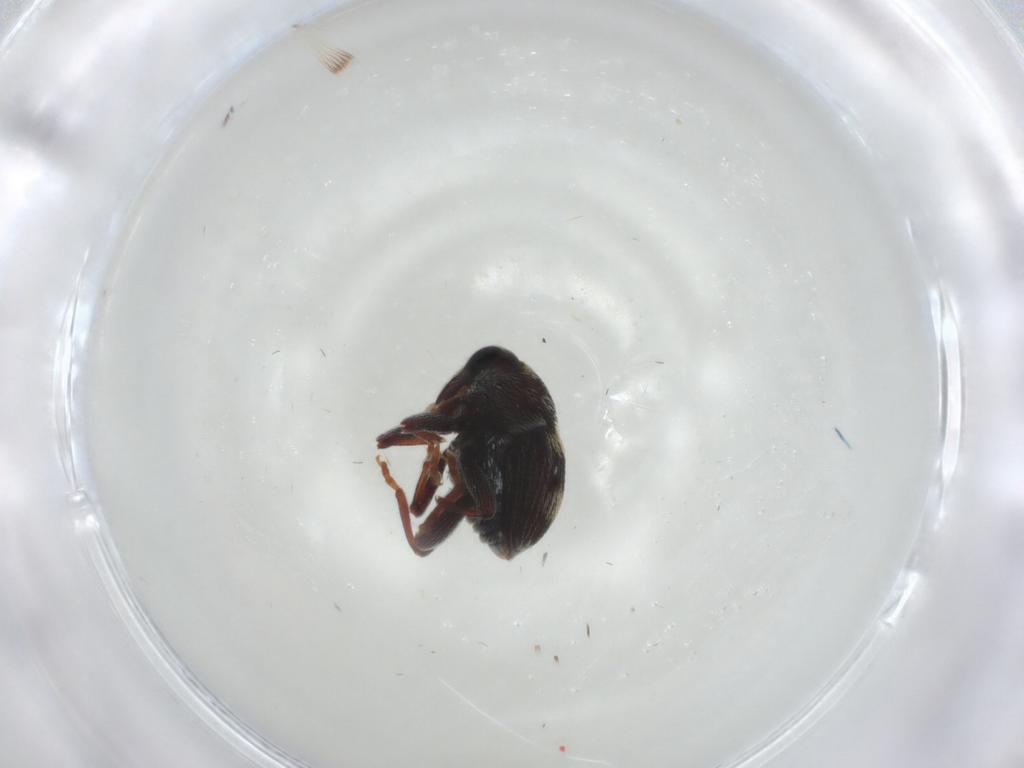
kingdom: Animalia
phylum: Arthropoda
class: Insecta
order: Coleoptera
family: Curculionidae
